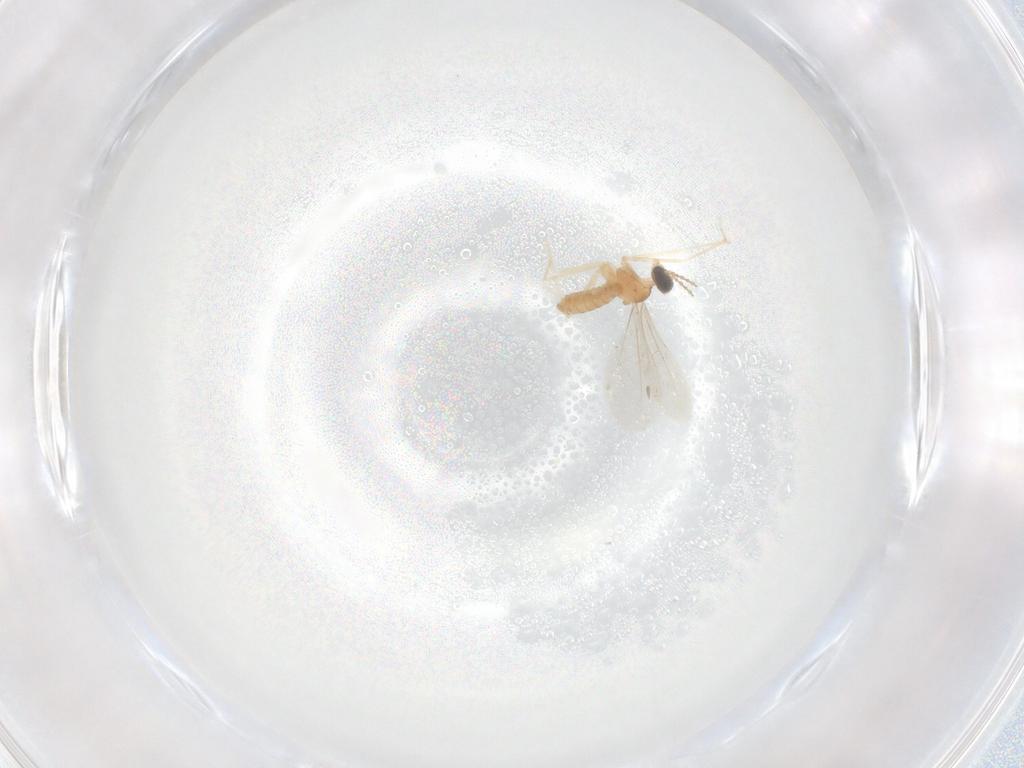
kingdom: Animalia
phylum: Arthropoda
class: Insecta
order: Diptera
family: Cecidomyiidae
